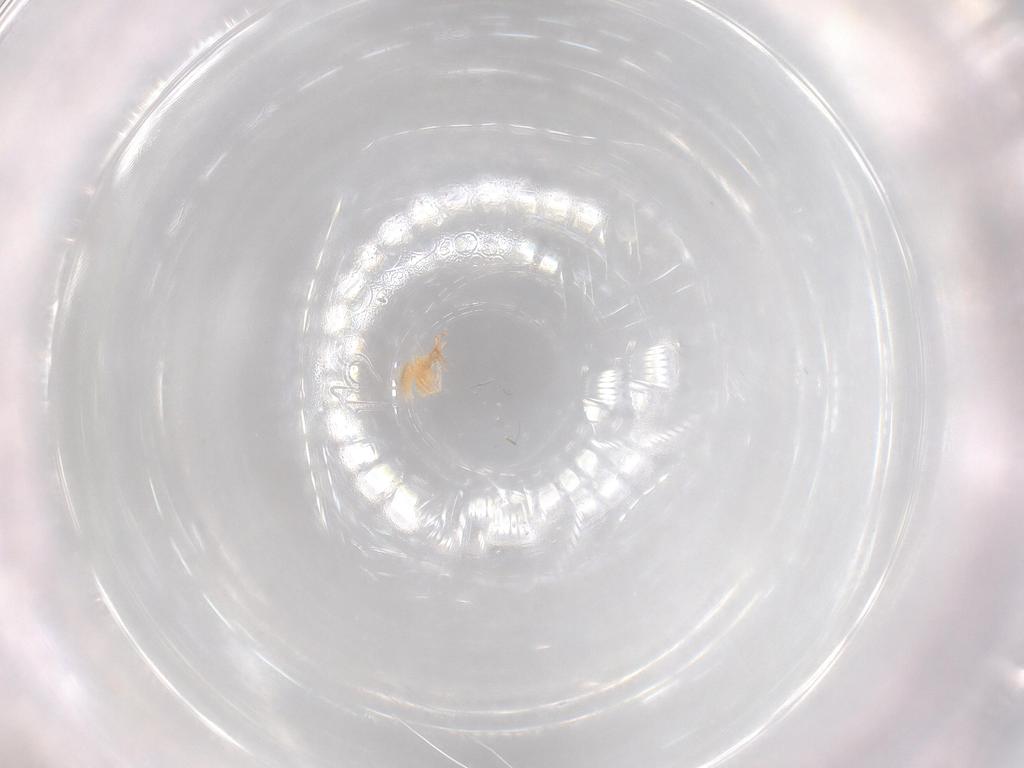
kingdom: Animalia
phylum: Arthropoda
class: Arachnida
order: Trombidiformes
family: Cunaxidae
